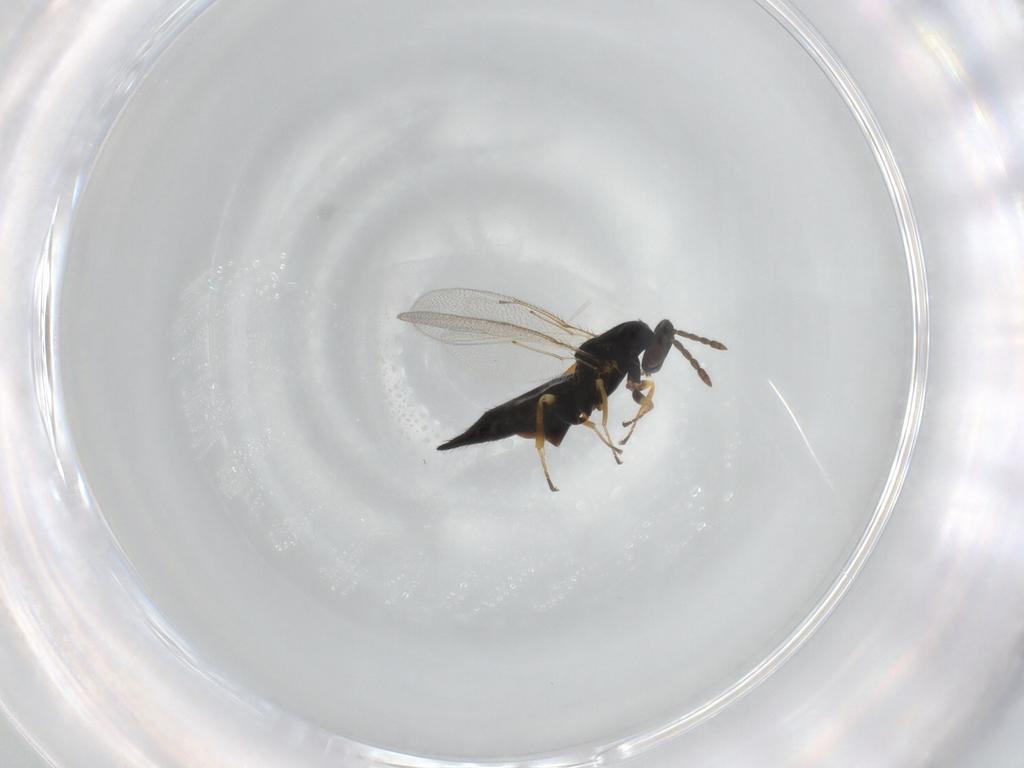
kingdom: Animalia
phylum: Arthropoda
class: Insecta
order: Hymenoptera
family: Eulophidae
